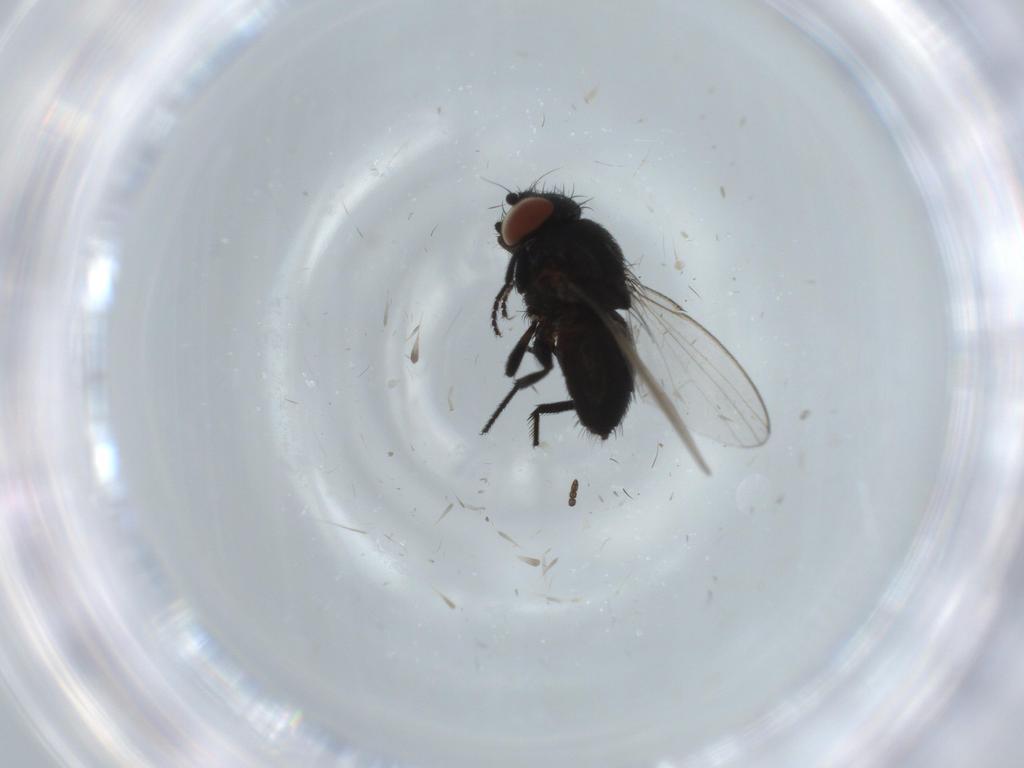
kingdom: Animalia
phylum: Arthropoda
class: Insecta
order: Diptera
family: Milichiidae
